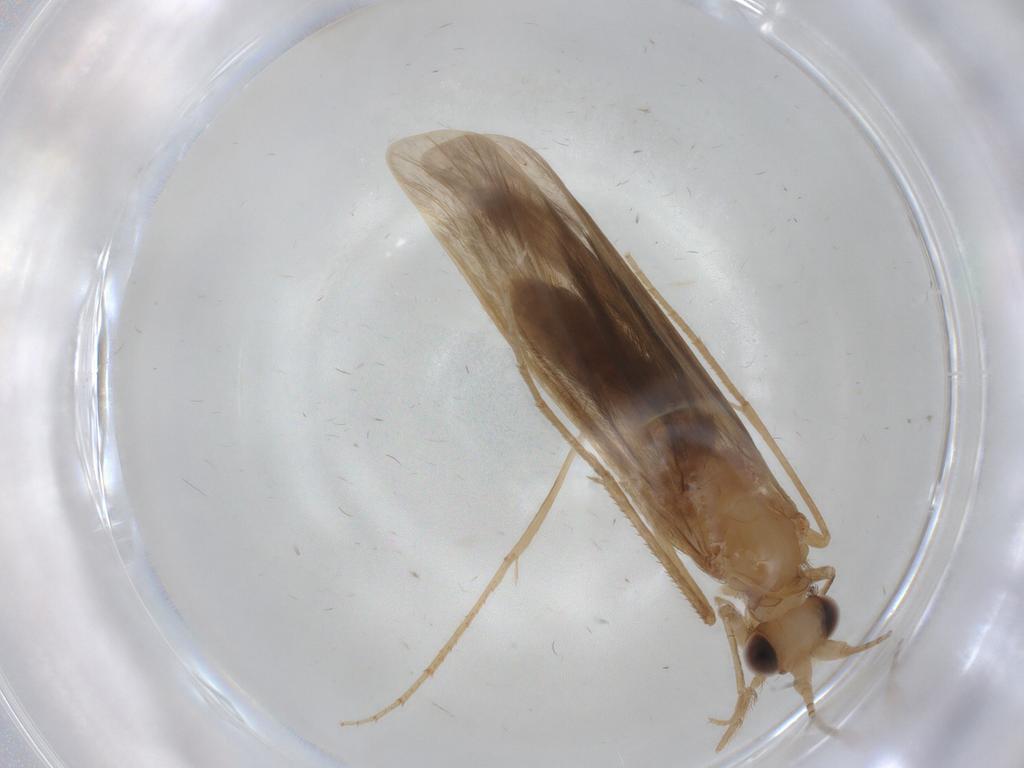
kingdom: Animalia
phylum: Arthropoda
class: Insecta
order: Trichoptera
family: Leptoceridae
